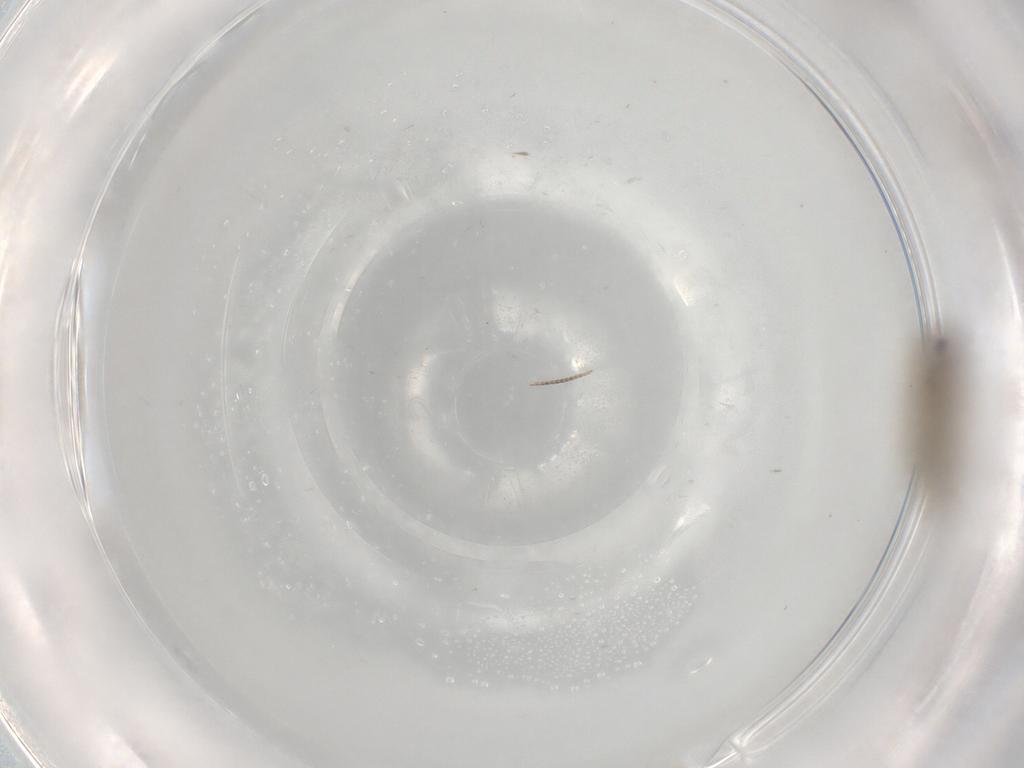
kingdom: Animalia
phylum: Arthropoda
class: Insecta
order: Lepidoptera
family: Nepticulidae
